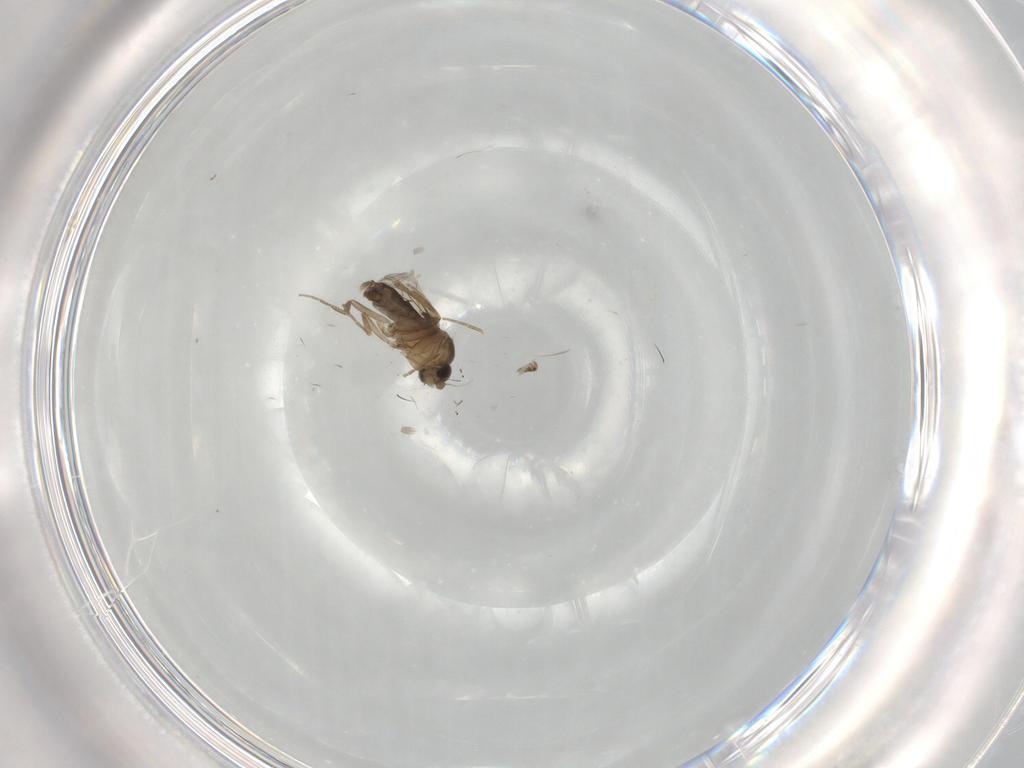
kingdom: Animalia
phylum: Arthropoda
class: Insecta
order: Diptera
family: Phoridae
